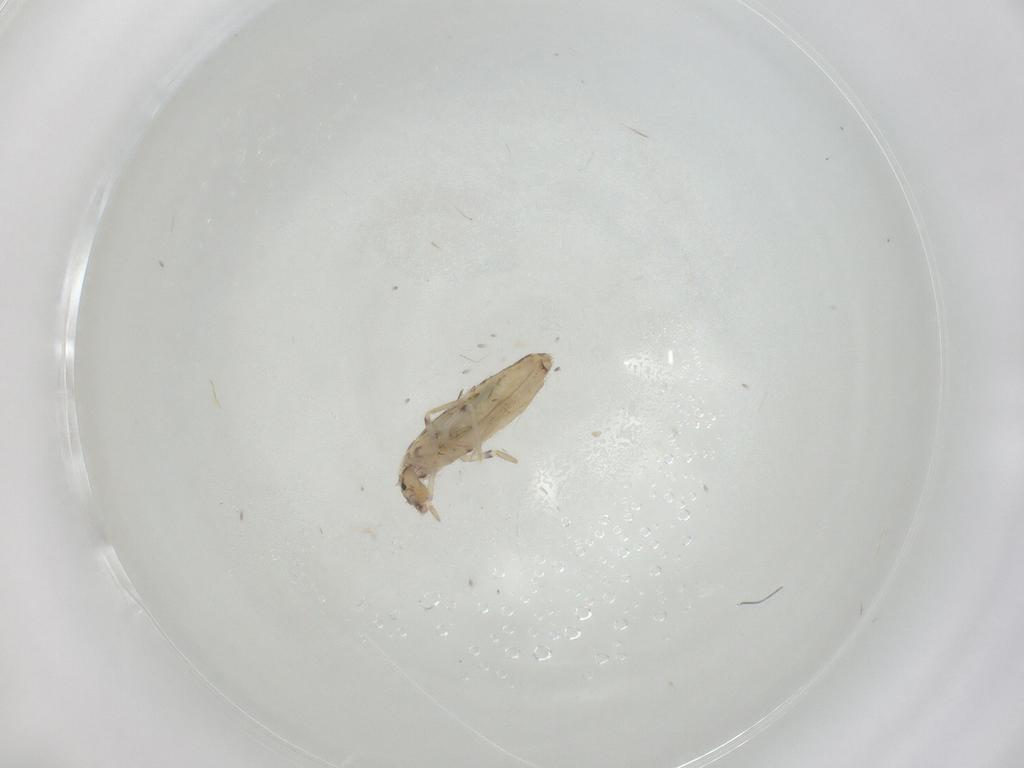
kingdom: Animalia
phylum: Arthropoda
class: Collembola
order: Entomobryomorpha
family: Entomobryidae
